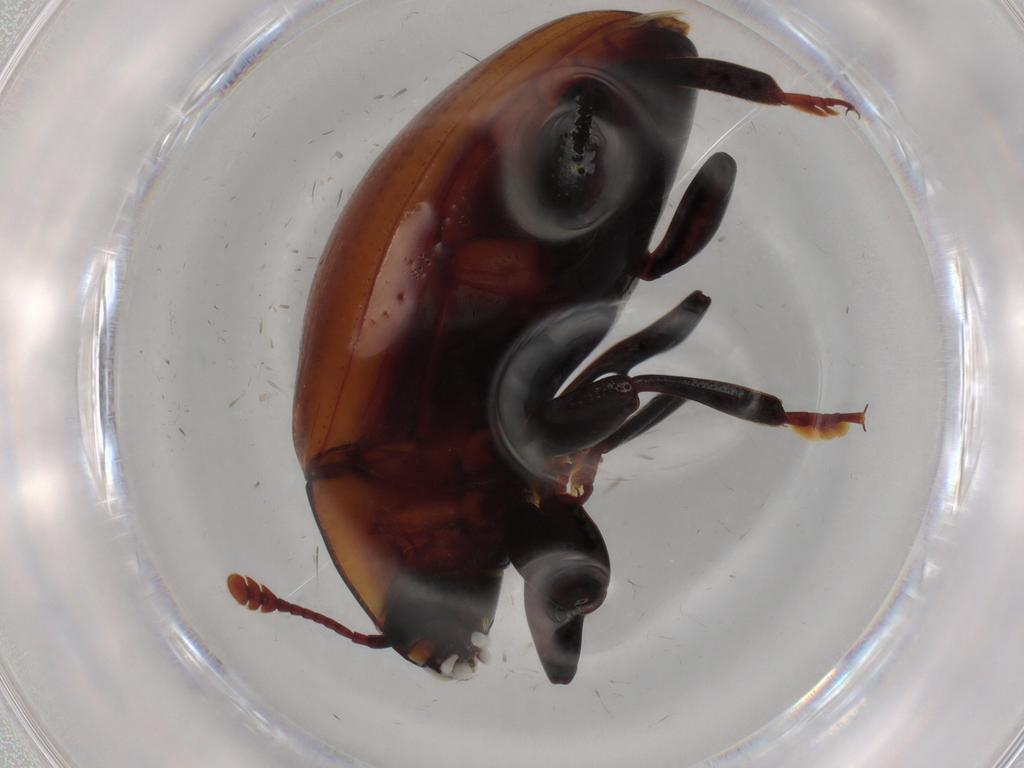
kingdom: Animalia
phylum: Arthropoda
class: Insecta
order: Coleoptera
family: Zopheridae
